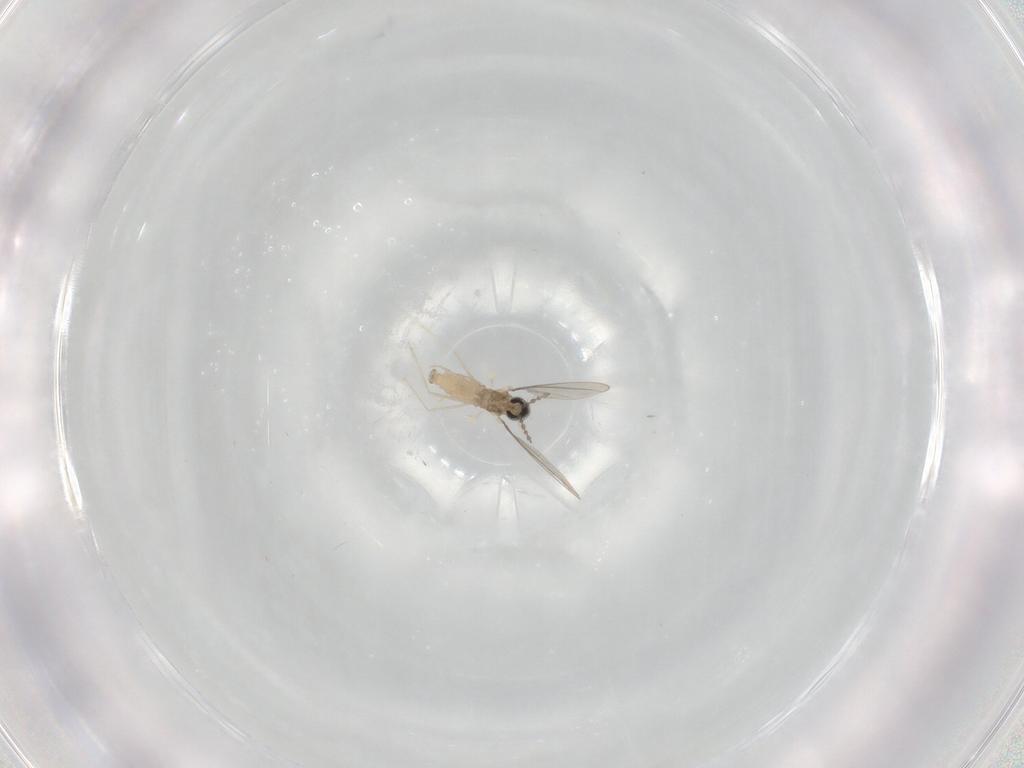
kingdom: Animalia
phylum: Arthropoda
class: Insecta
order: Diptera
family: Cecidomyiidae
